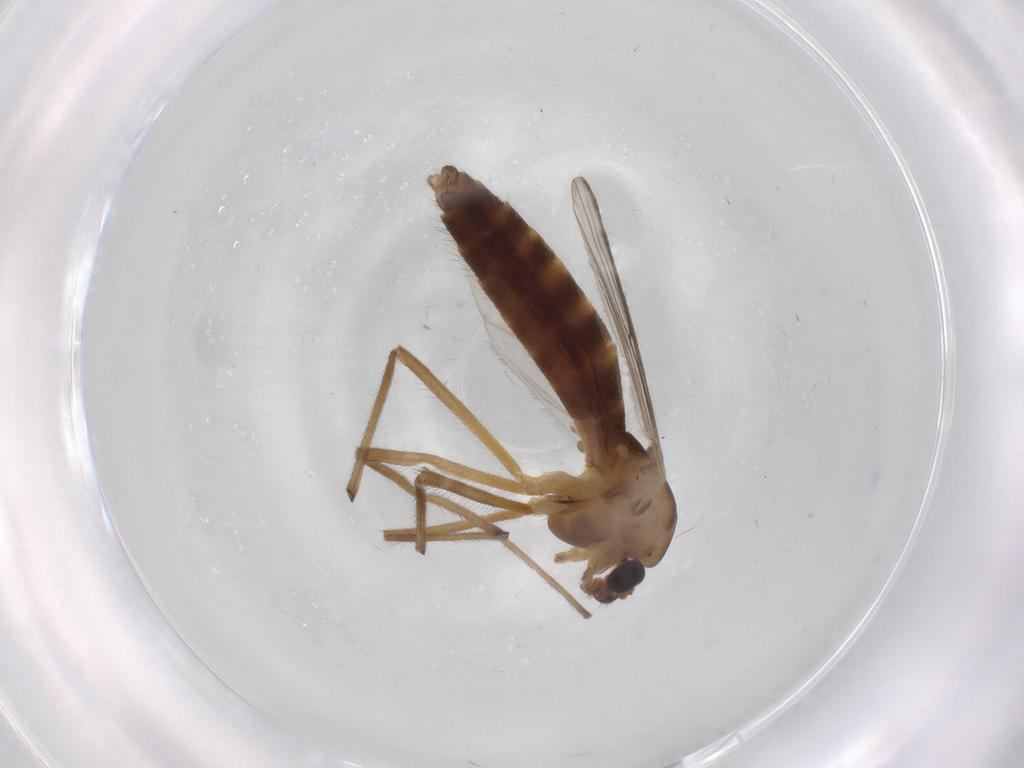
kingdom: Animalia
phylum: Arthropoda
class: Insecta
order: Diptera
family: Chironomidae
